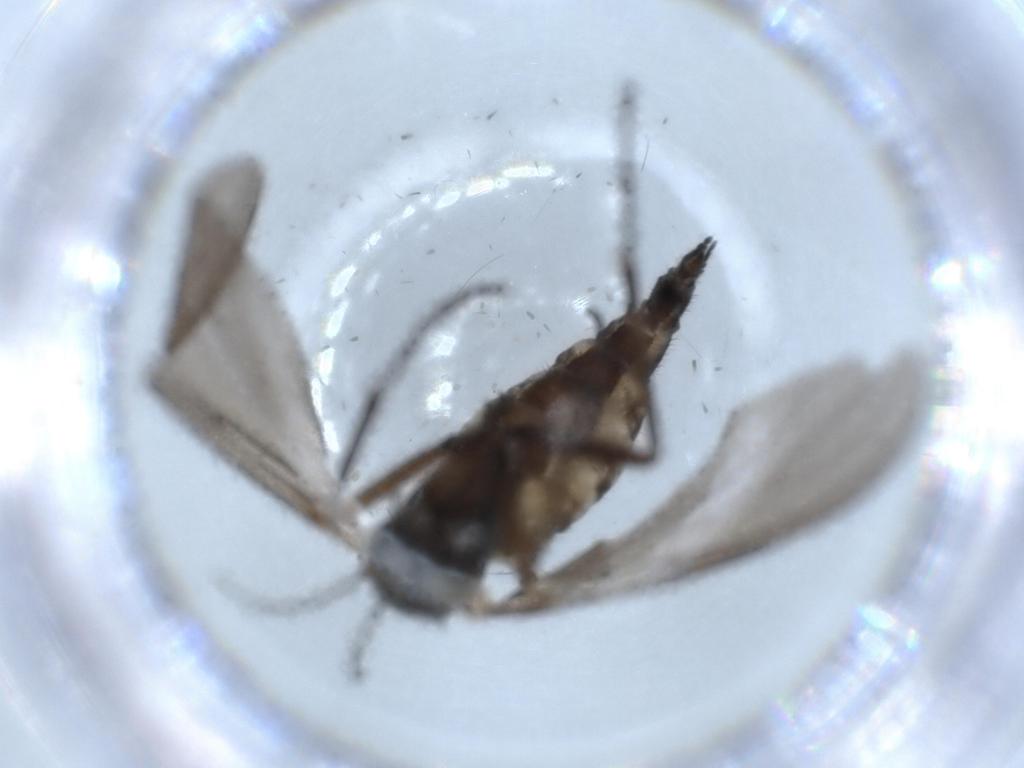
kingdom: Animalia
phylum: Arthropoda
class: Insecta
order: Diptera
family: Sciaridae
